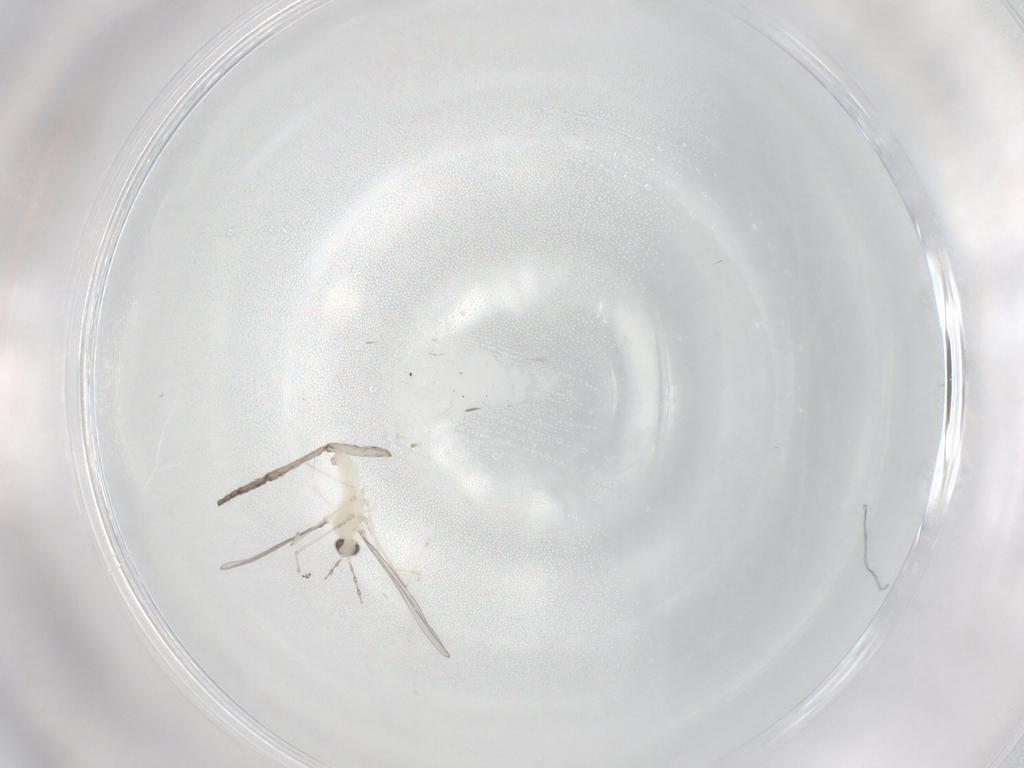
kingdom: Animalia
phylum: Arthropoda
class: Insecta
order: Diptera
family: Psychodidae
